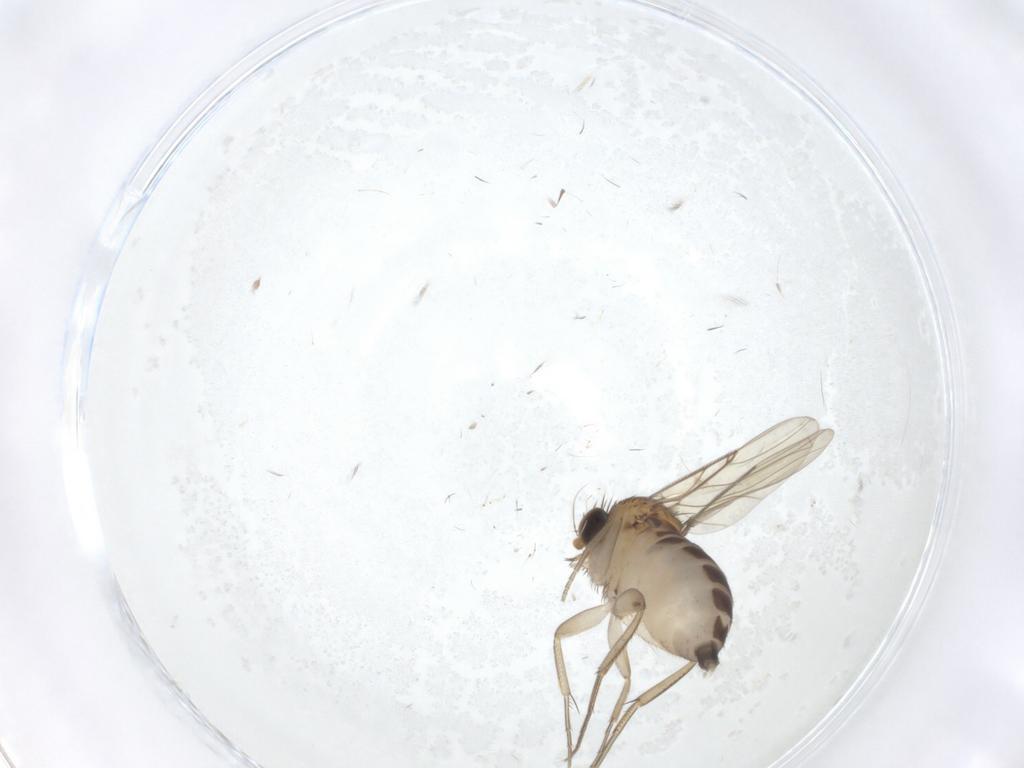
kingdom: Animalia
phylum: Arthropoda
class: Insecta
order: Diptera
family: Phoridae
